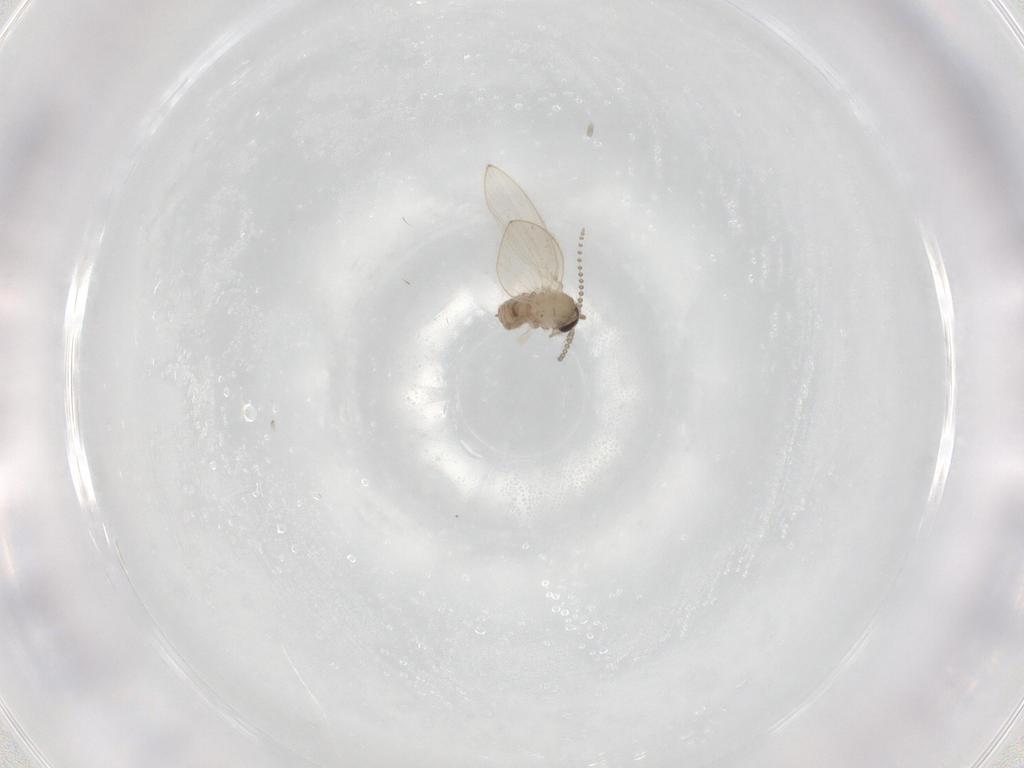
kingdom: Animalia
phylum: Arthropoda
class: Insecta
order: Diptera
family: Psychodidae
